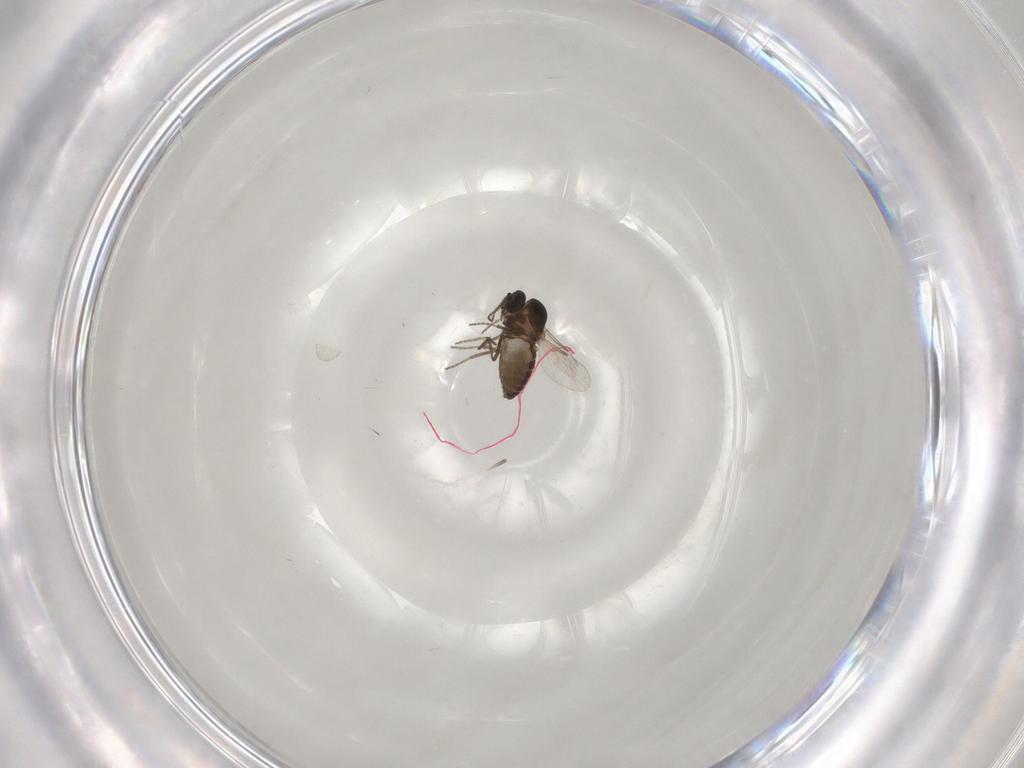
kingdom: Animalia
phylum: Arthropoda
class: Insecta
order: Diptera
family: Ceratopogonidae
